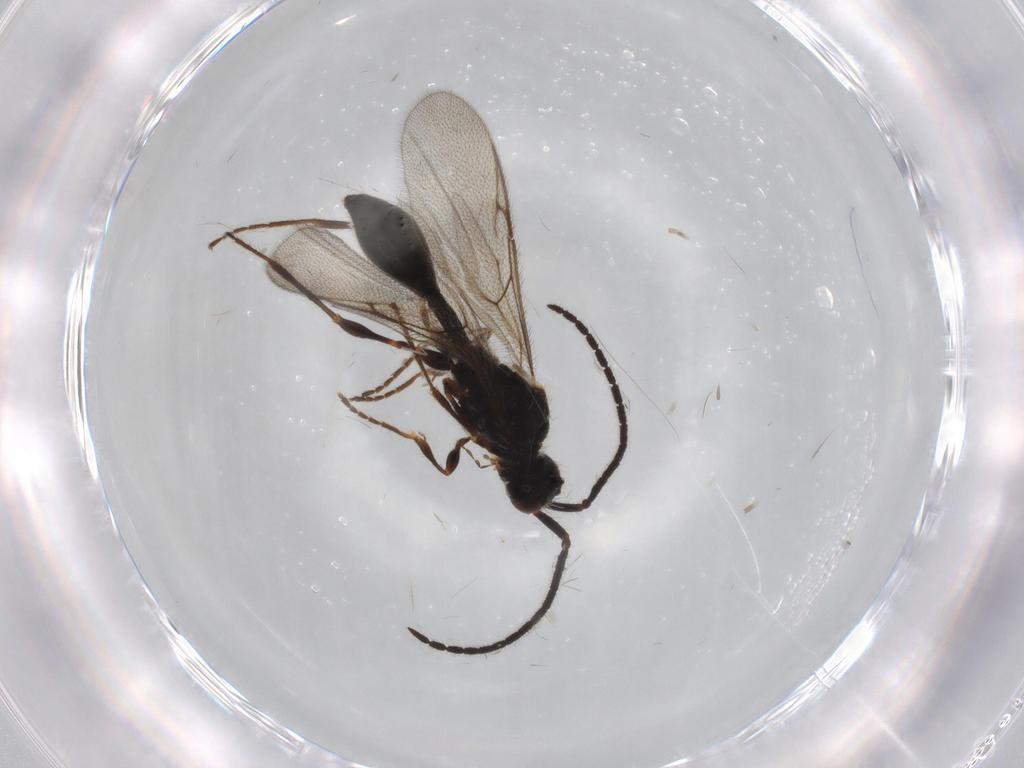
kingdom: Animalia
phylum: Arthropoda
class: Insecta
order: Hymenoptera
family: Diapriidae
